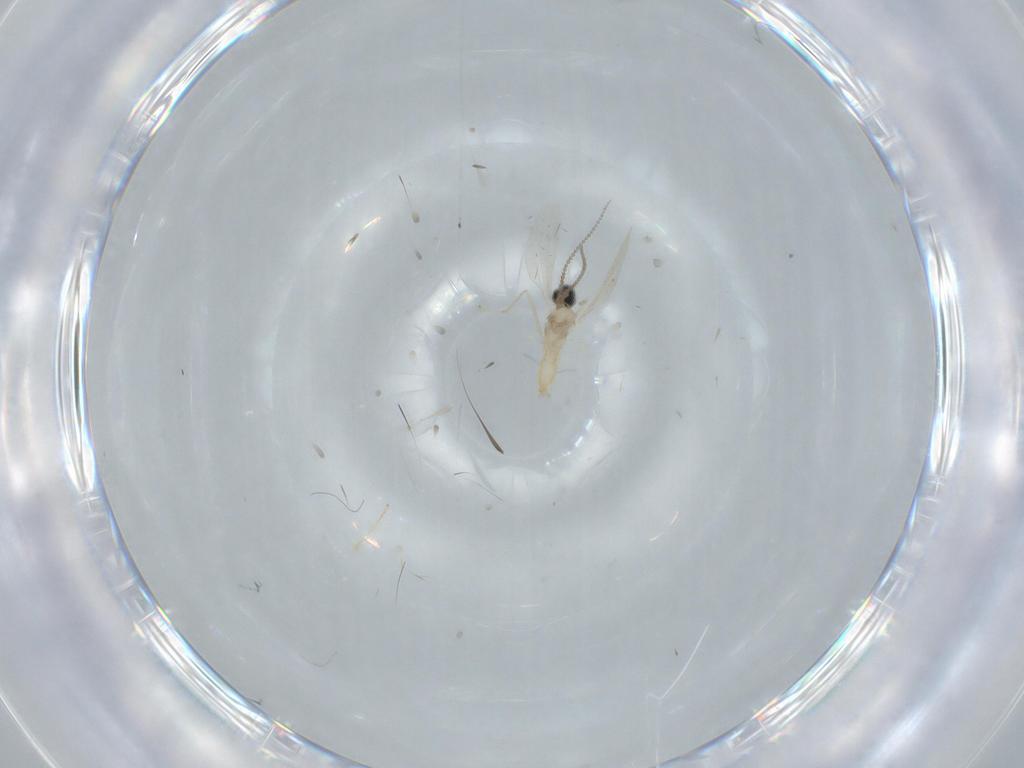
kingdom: Animalia
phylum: Arthropoda
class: Insecta
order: Diptera
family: Cecidomyiidae
